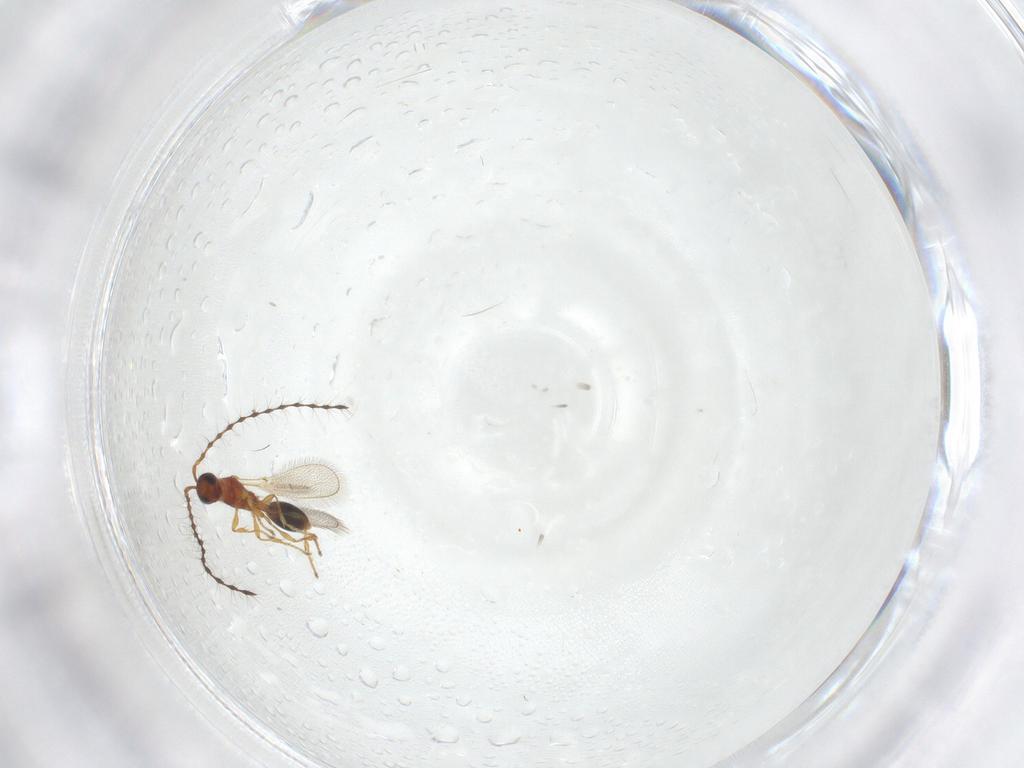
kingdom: Animalia
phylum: Arthropoda
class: Insecta
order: Hymenoptera
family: Diapriidae
